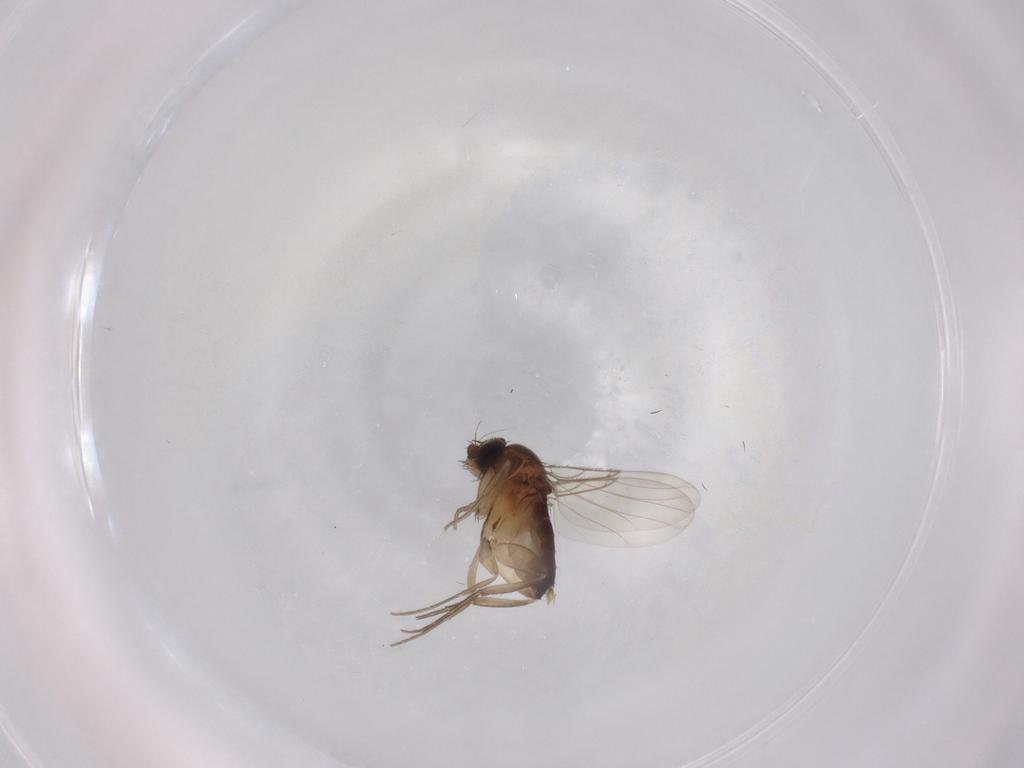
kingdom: Animalia
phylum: Arthropoda
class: Insecta
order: Diptera
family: Phoridae
